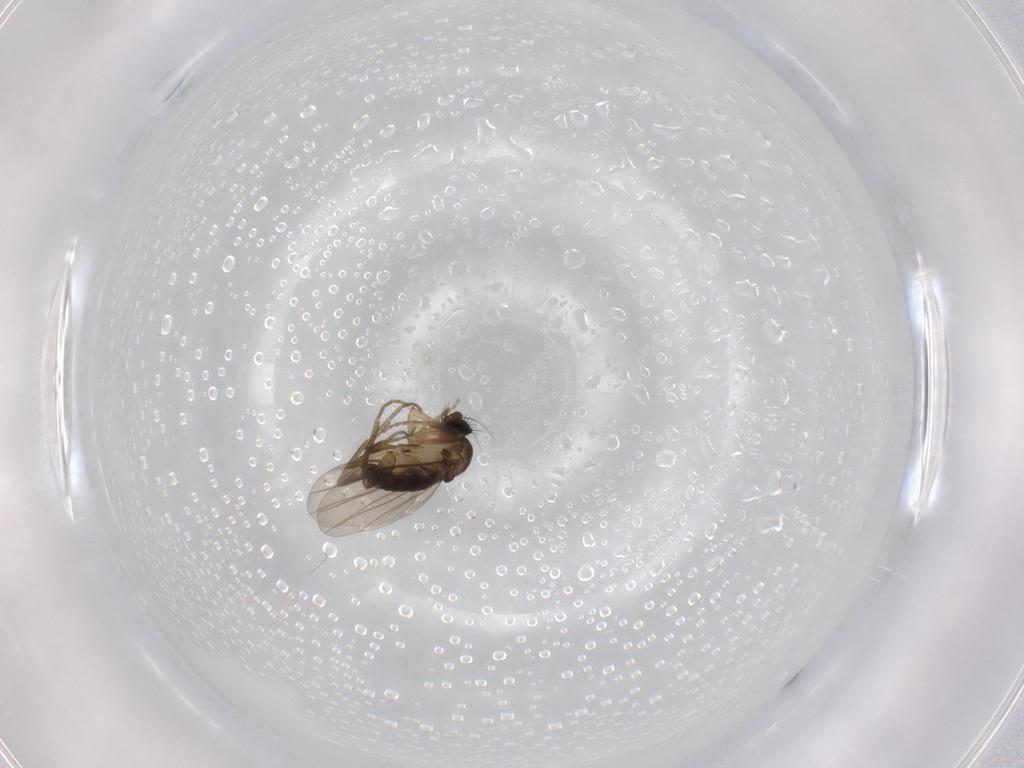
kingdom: Animalia
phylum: Arthropoda
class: Insecta
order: Diptera
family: Phoridae
